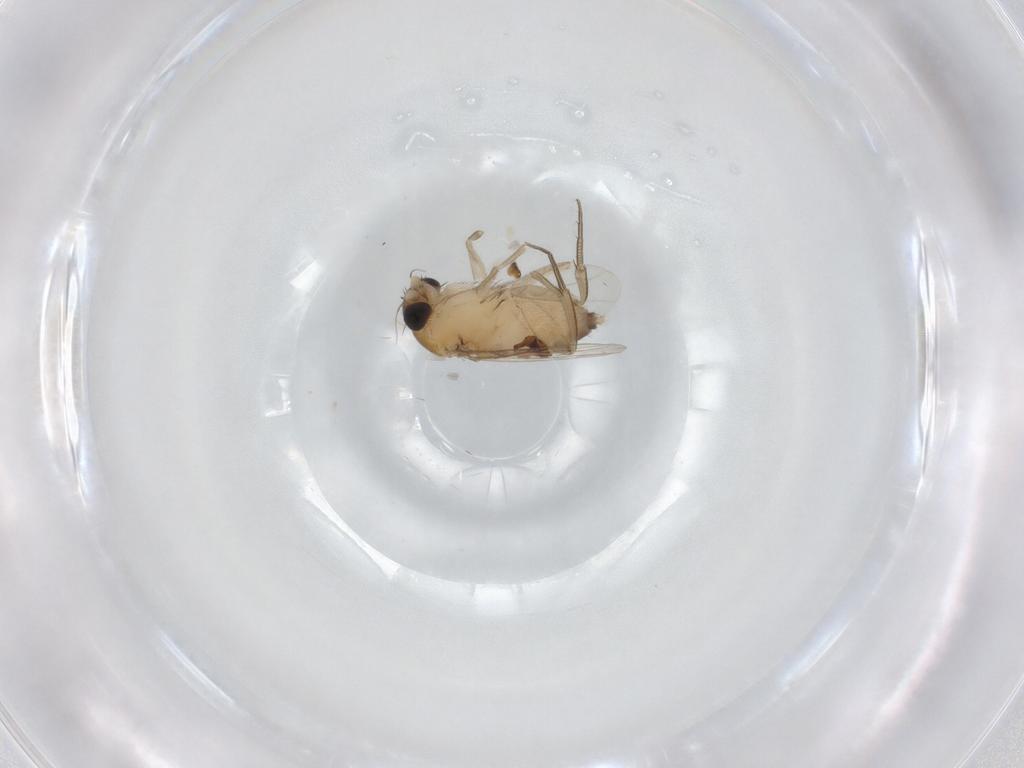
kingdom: Animalia
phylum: Arthropoda
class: Insecta
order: Diptera
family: Phoridae
